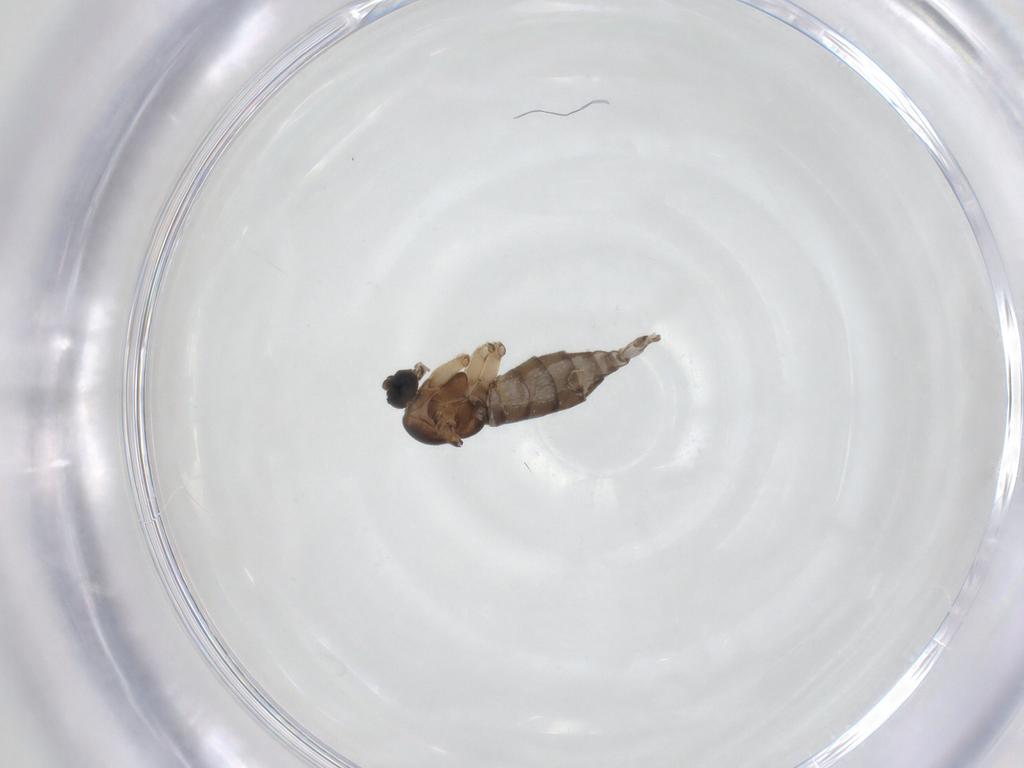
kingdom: Animalia
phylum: Arthropoda
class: Insecta
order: Diptera
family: Sciaridae
